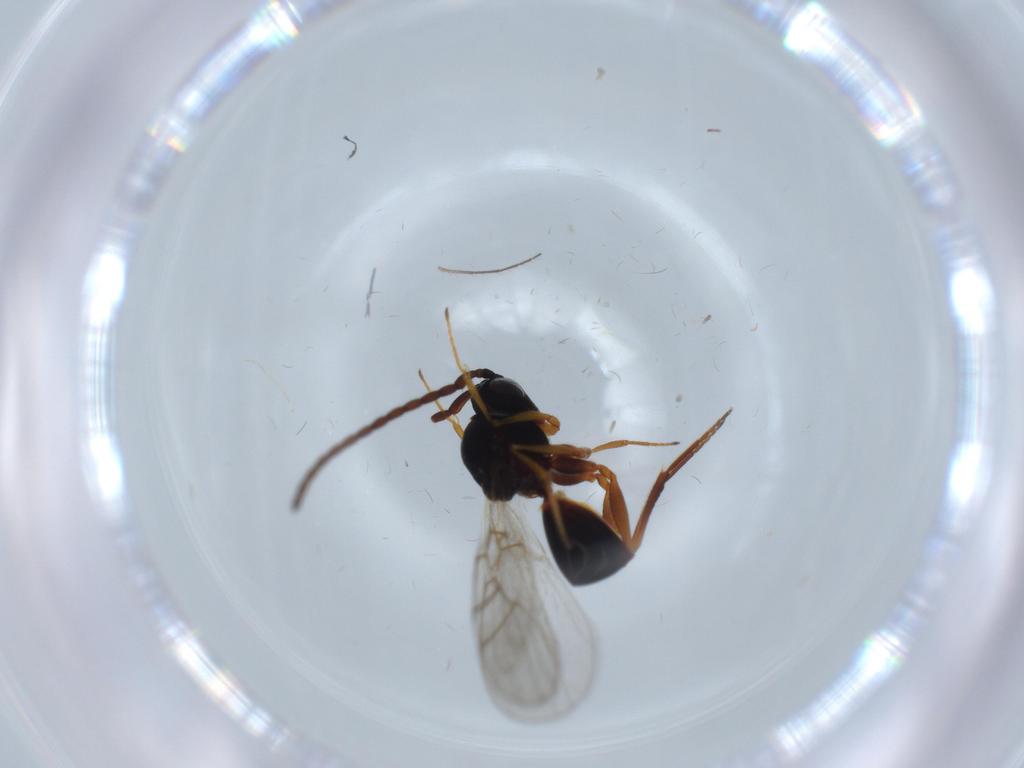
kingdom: Animalia
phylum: Arthropoda
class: Insecta
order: Hymenoptera
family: Figitidae
